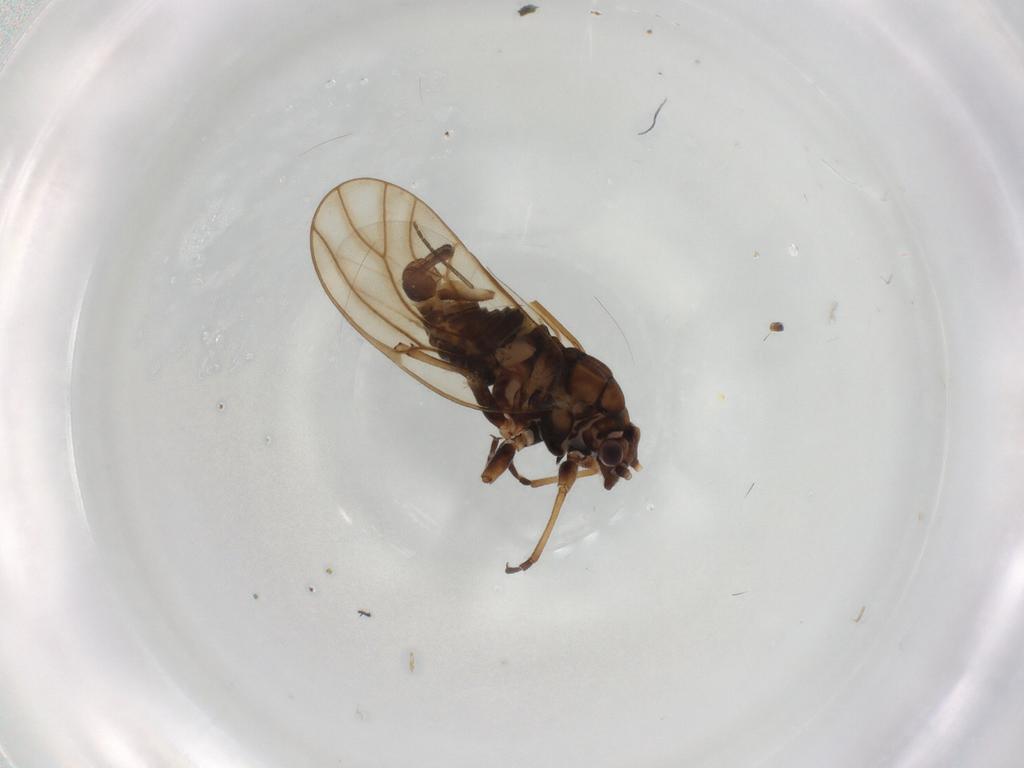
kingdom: Animalia
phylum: Arthropoda
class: Insecta
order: Hemiptera
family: Psyllidae
